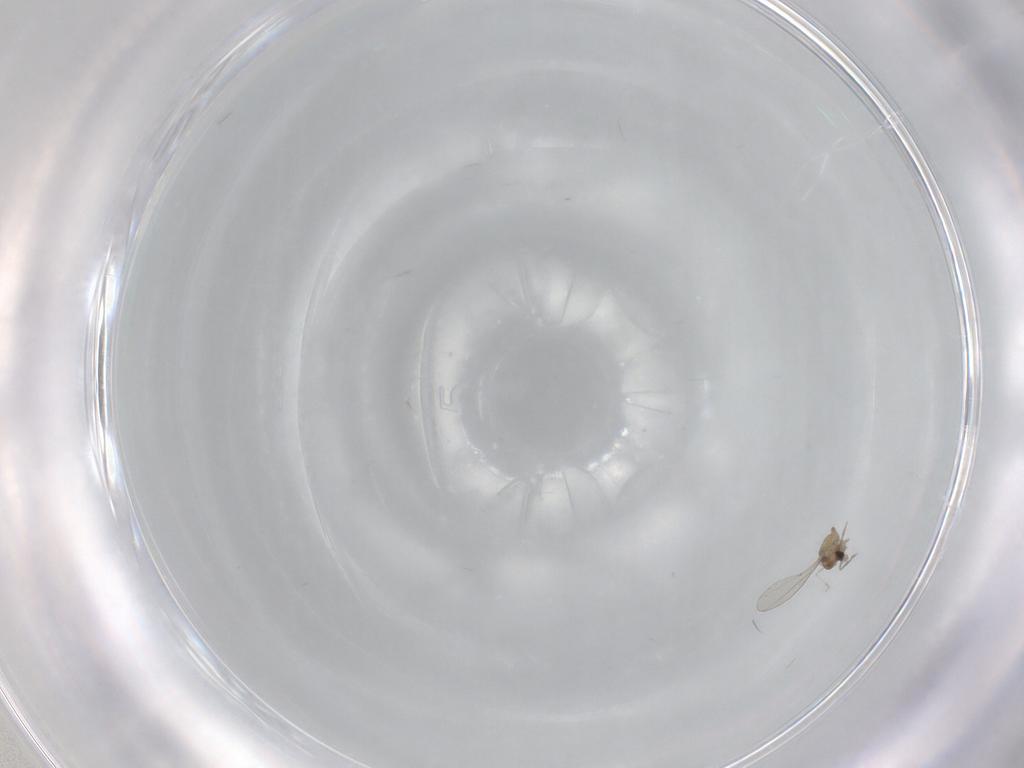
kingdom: Animalia
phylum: Arthropoda
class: Insecta
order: Diptera
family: Cecidomyiidae
